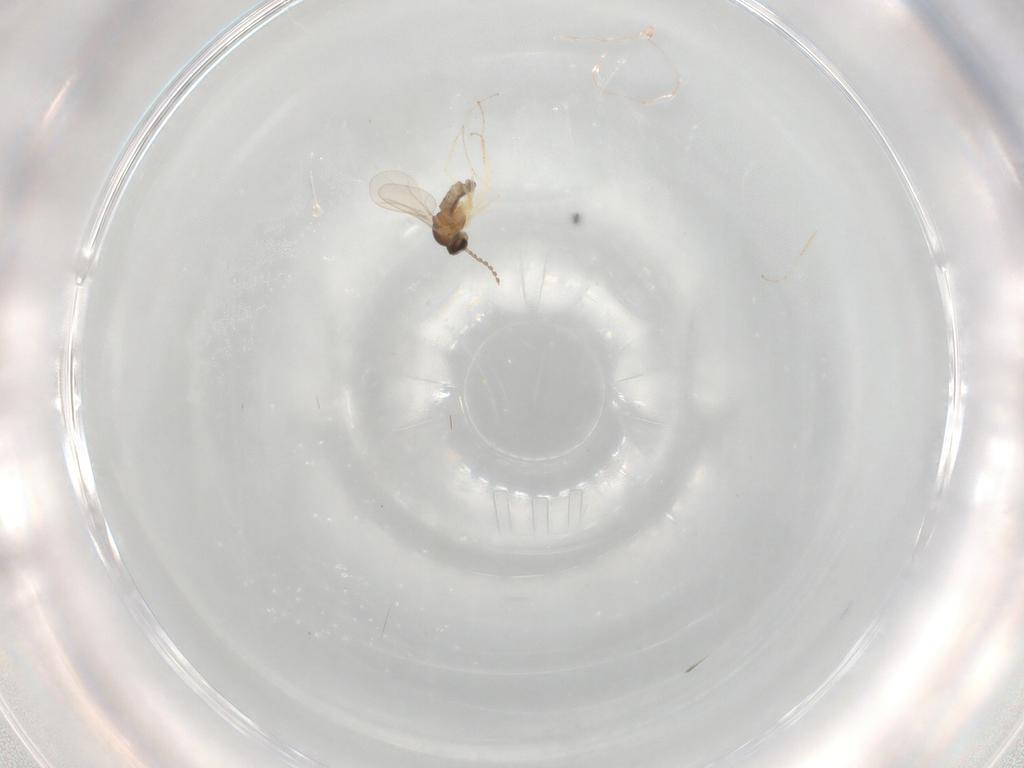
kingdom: Animalia
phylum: Arthropoda
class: Insecta
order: Diptera
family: Cecidomyiidae
